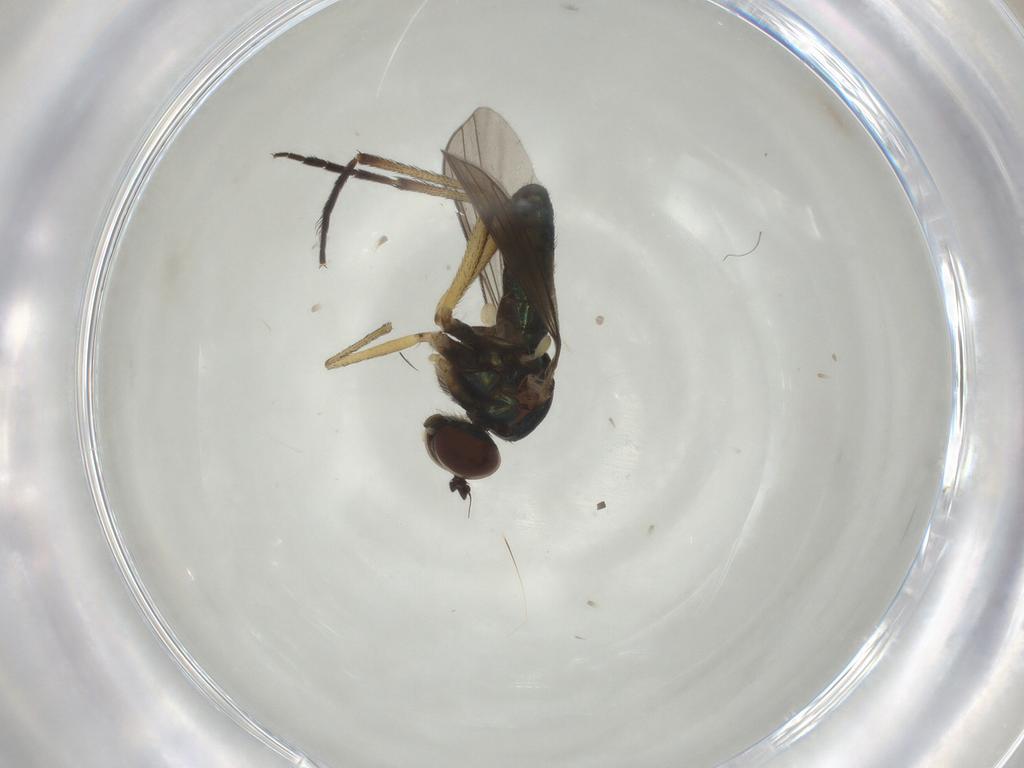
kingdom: Animalia
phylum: Arthropoda
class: Insecta
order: Diptera
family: Dolichopodidae
